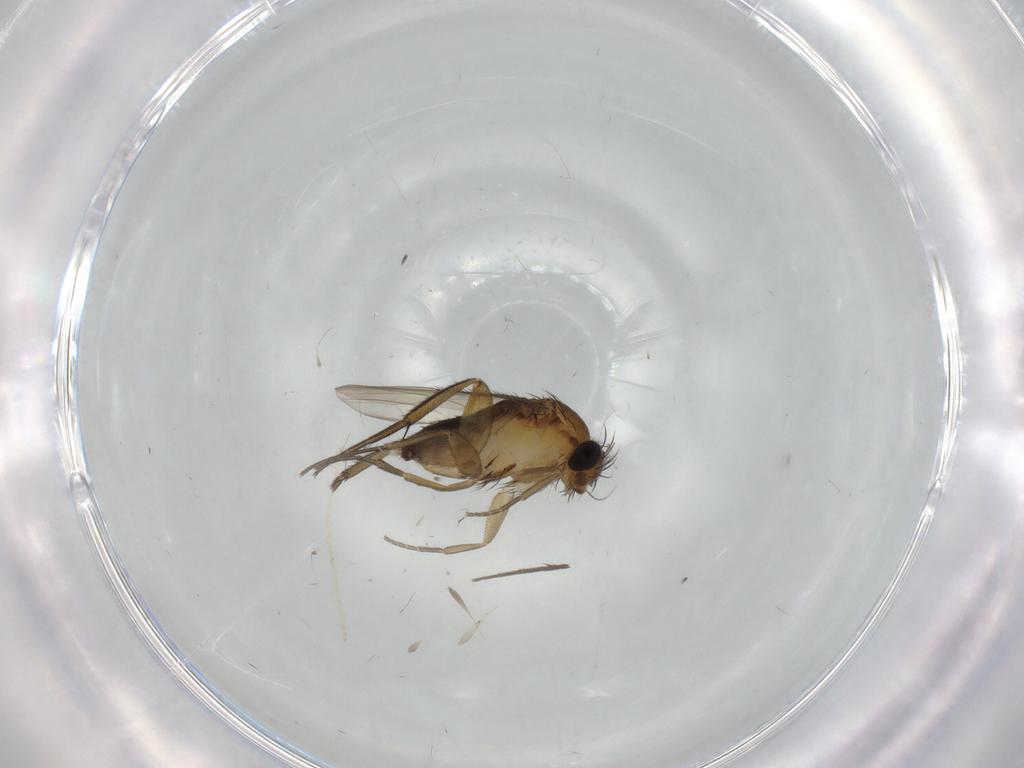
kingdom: Animalia
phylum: Arthropoda
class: Insecta
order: Diptera
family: Phoridae
